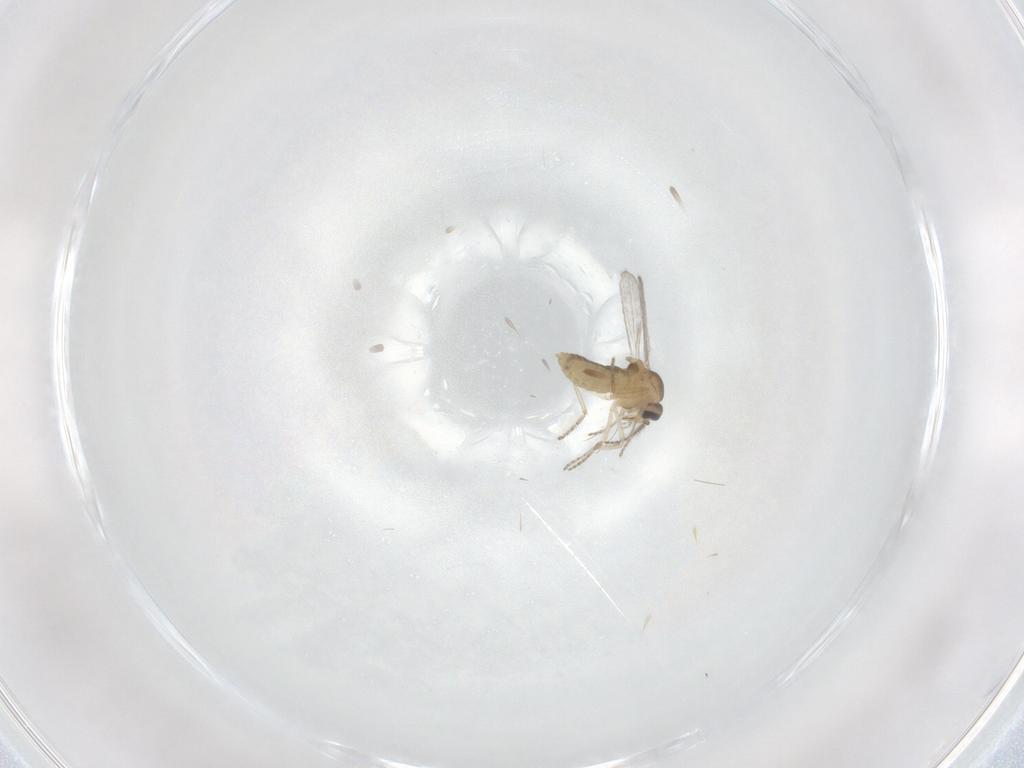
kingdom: Animalia
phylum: Arthropoda
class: Insecta
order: Diptera
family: Ceratopogonidae
